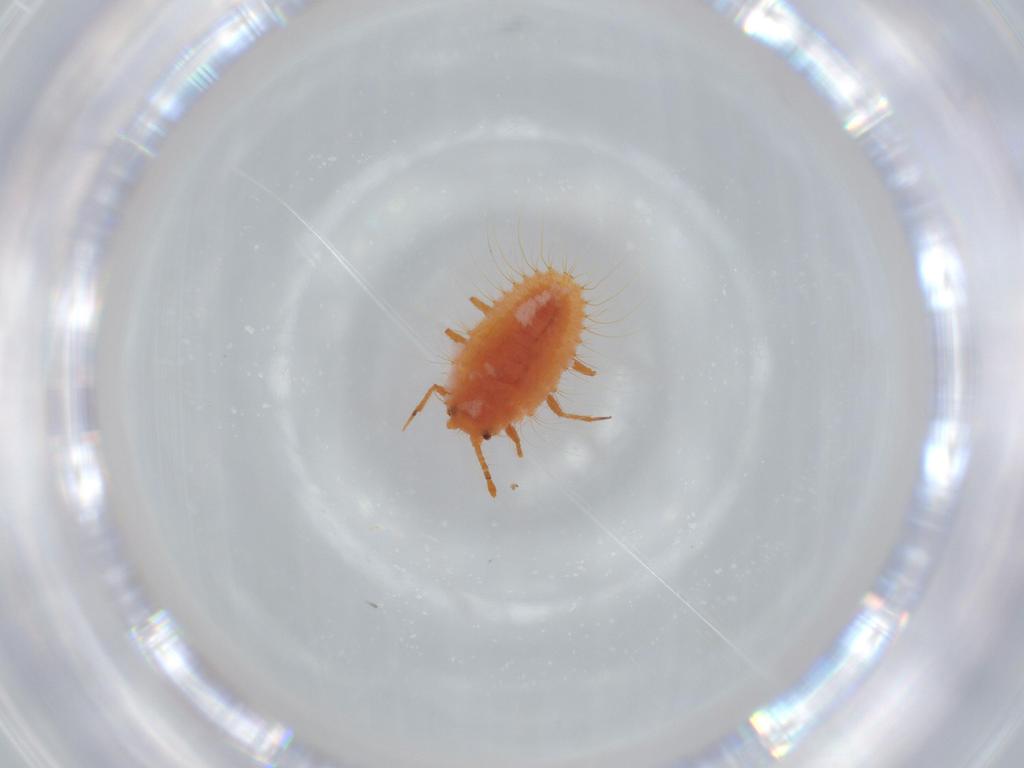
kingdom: Animalia
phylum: Arthropoda
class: Insecta
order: Hemiptera
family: Coccoidea_incertae_sedis
